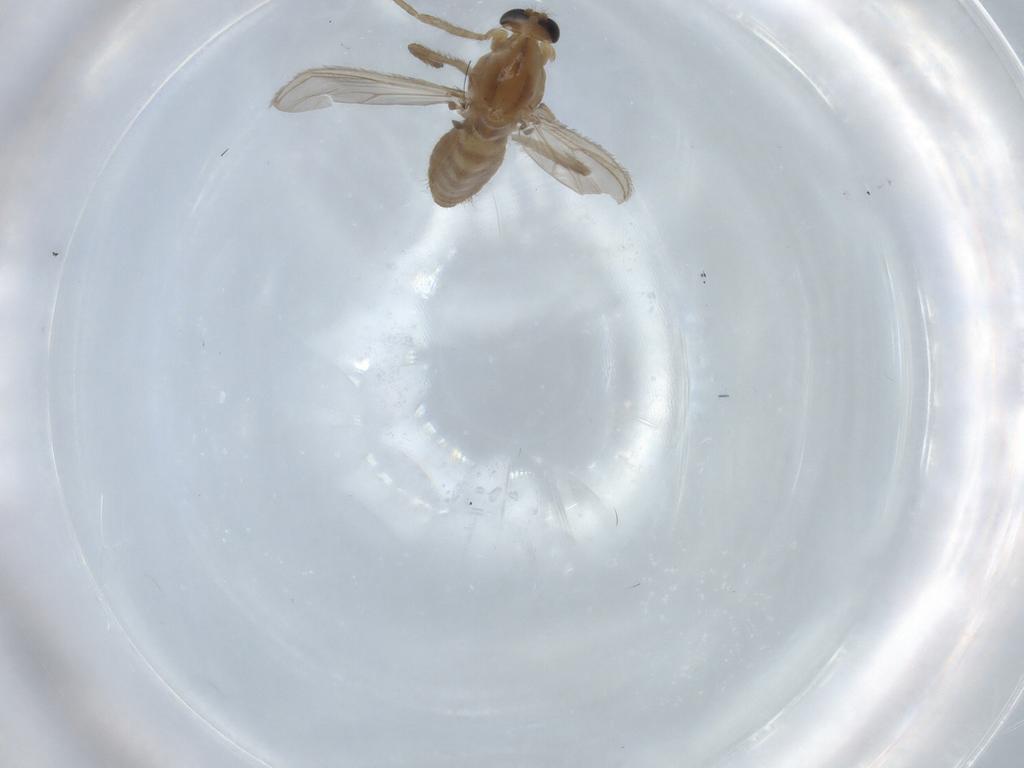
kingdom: Animalia
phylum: Arthropoda
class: Insecta
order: Diptera
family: Chironomidae
